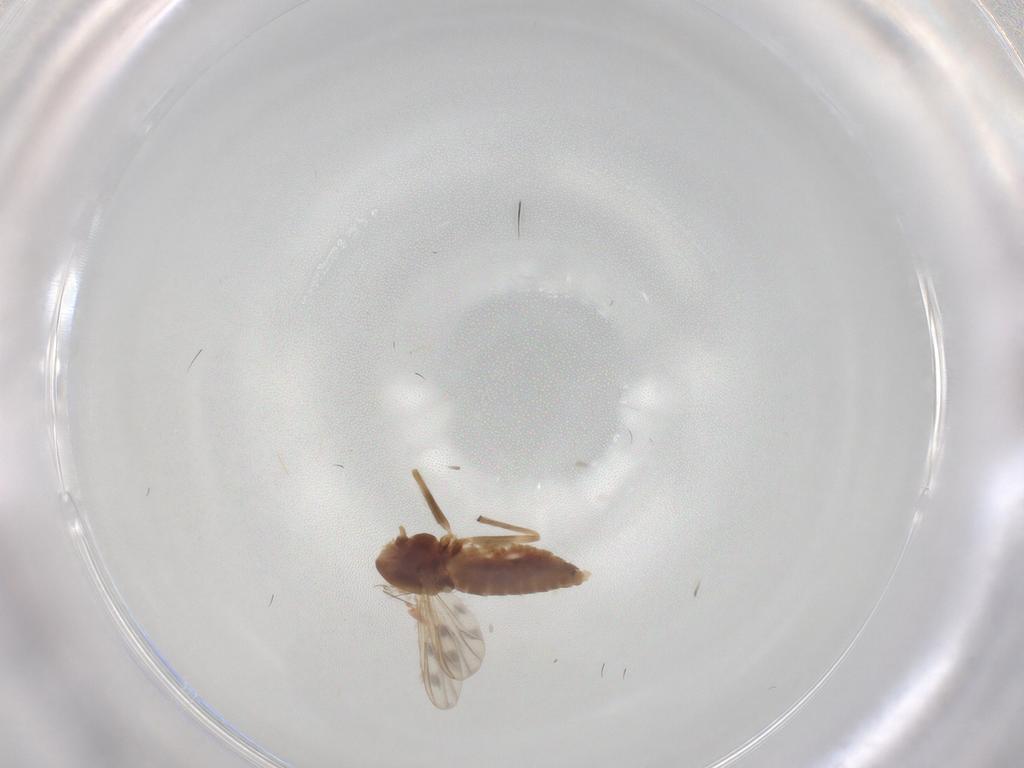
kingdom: Animalia
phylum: Arthropoda
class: Insecta
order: Diptera
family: Chironomidae
